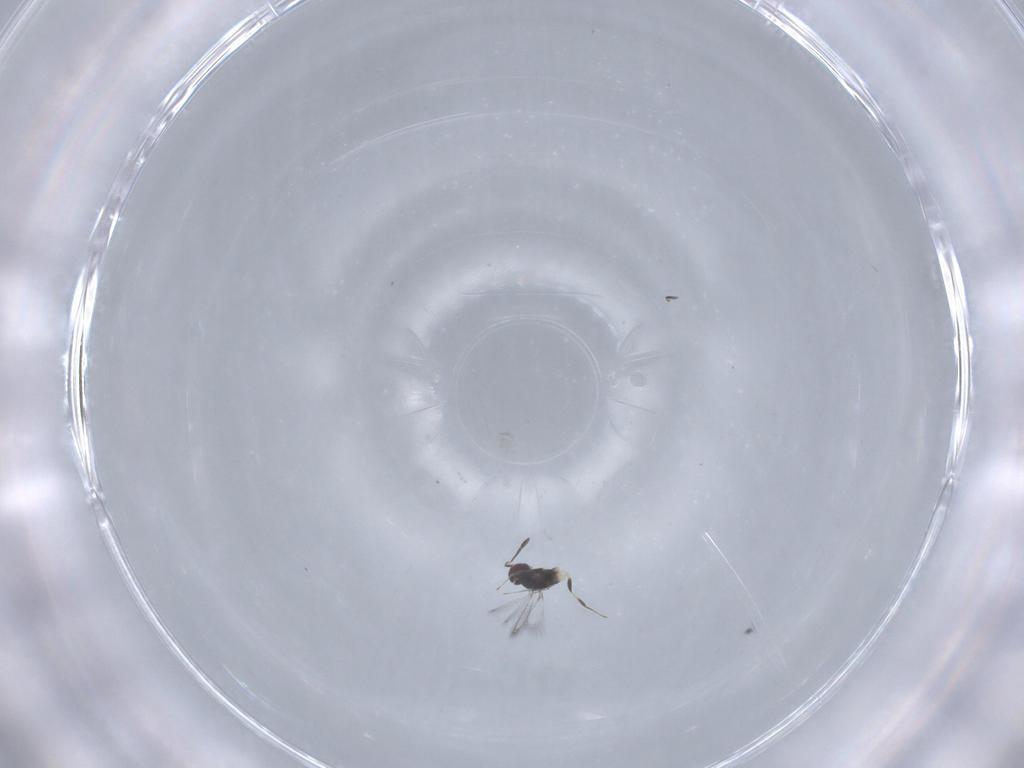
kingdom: Animalia
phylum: Arthropoda
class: Insecta
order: Hymenoptera
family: Mymaridae
